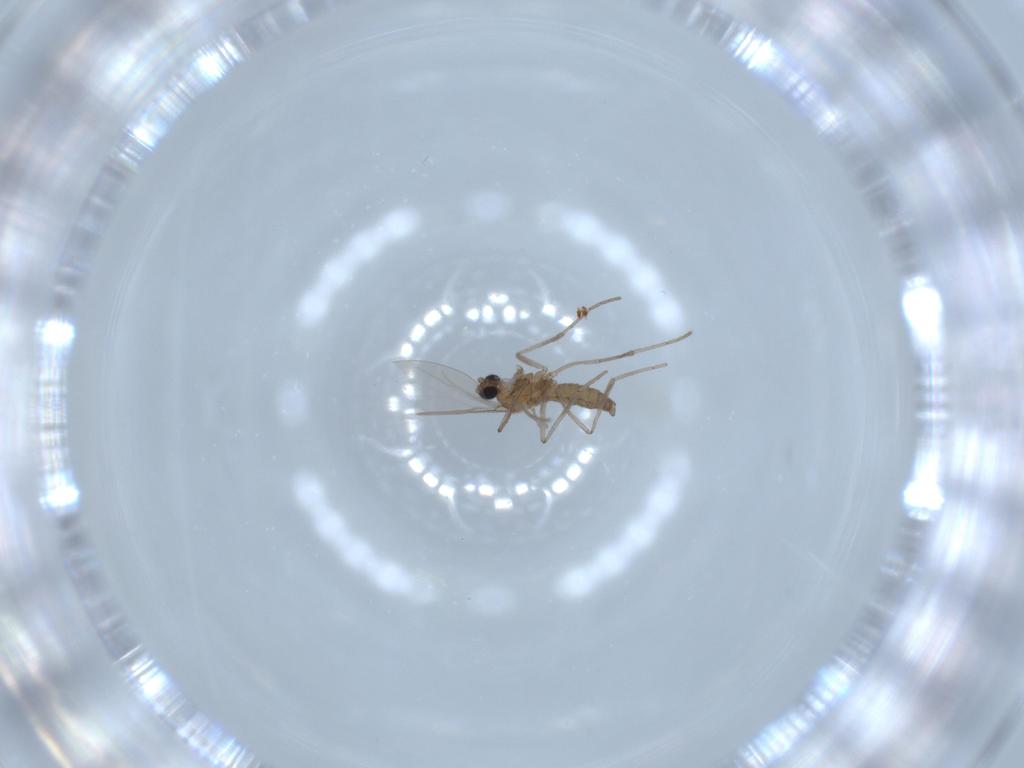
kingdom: Animalia
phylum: Arthropoda
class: Insecta
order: Diptera
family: Cecidomyiidae
